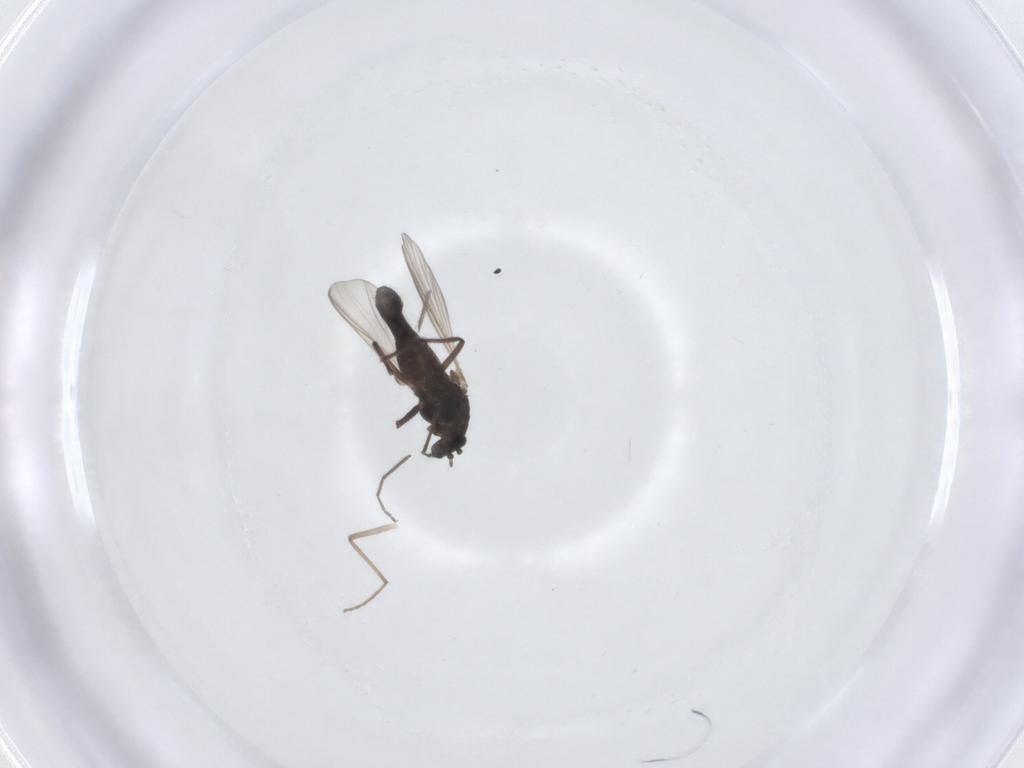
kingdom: Animalia
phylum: Arthropoda
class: Insecta
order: Diptera
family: Chironomidae
